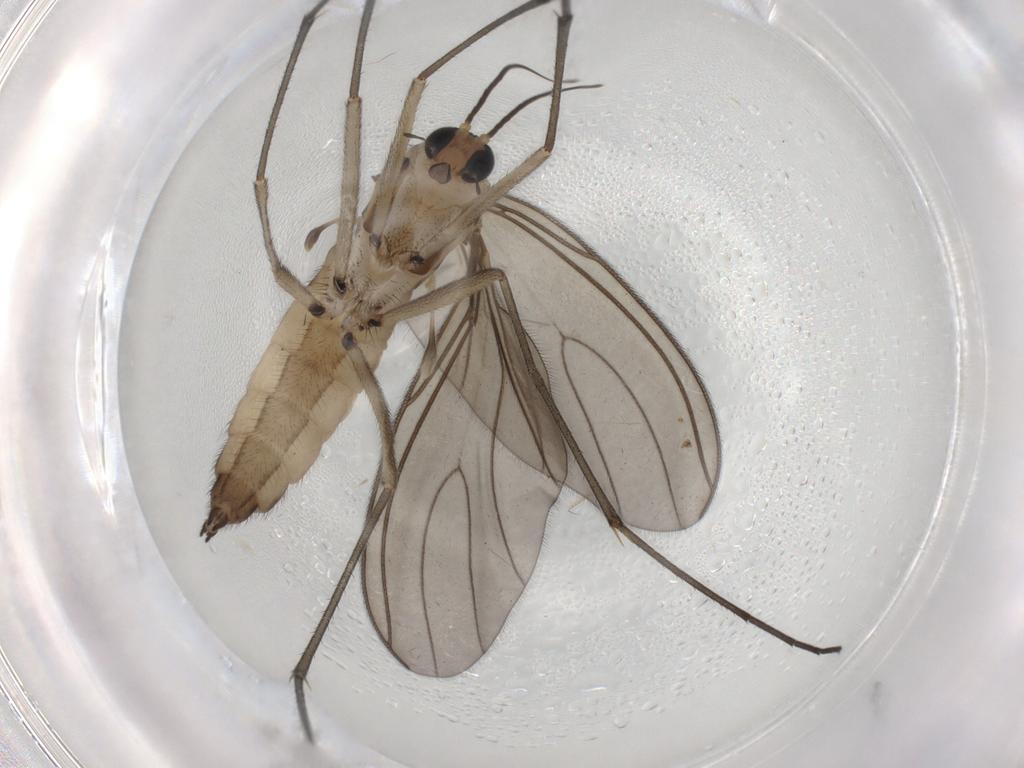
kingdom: Animalia
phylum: Arthropoda
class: Insecta
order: Diptera
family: Sciaridae
